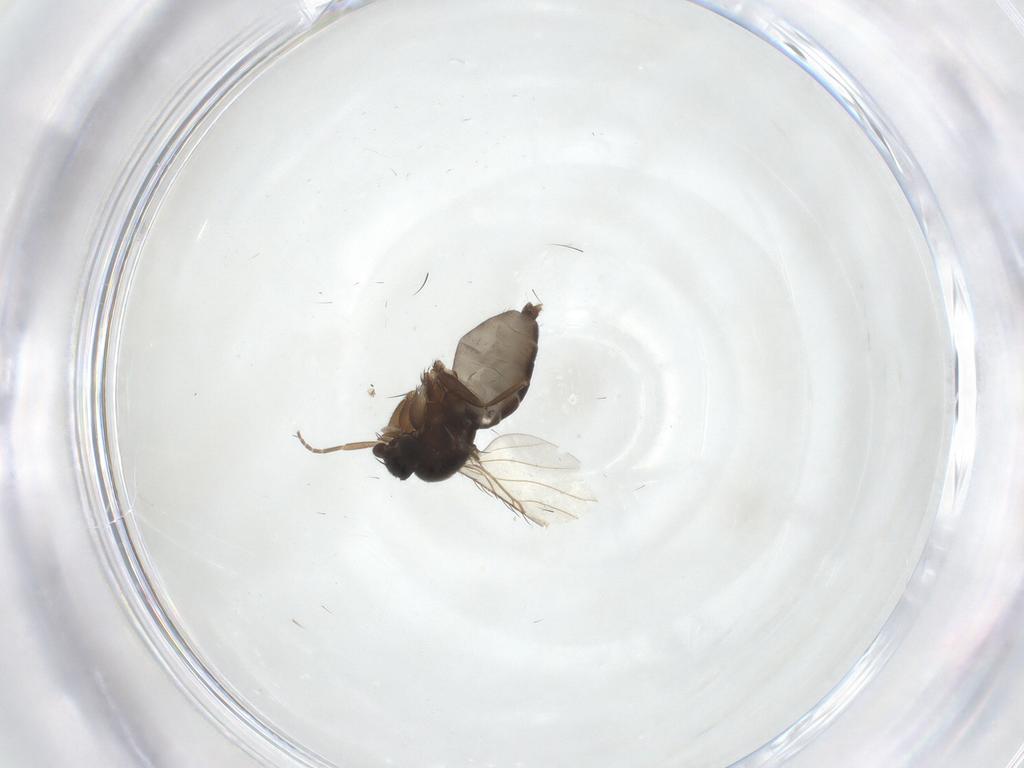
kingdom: Animalia
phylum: Arthropoda
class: Insecta
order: Diptera
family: Phoridae
